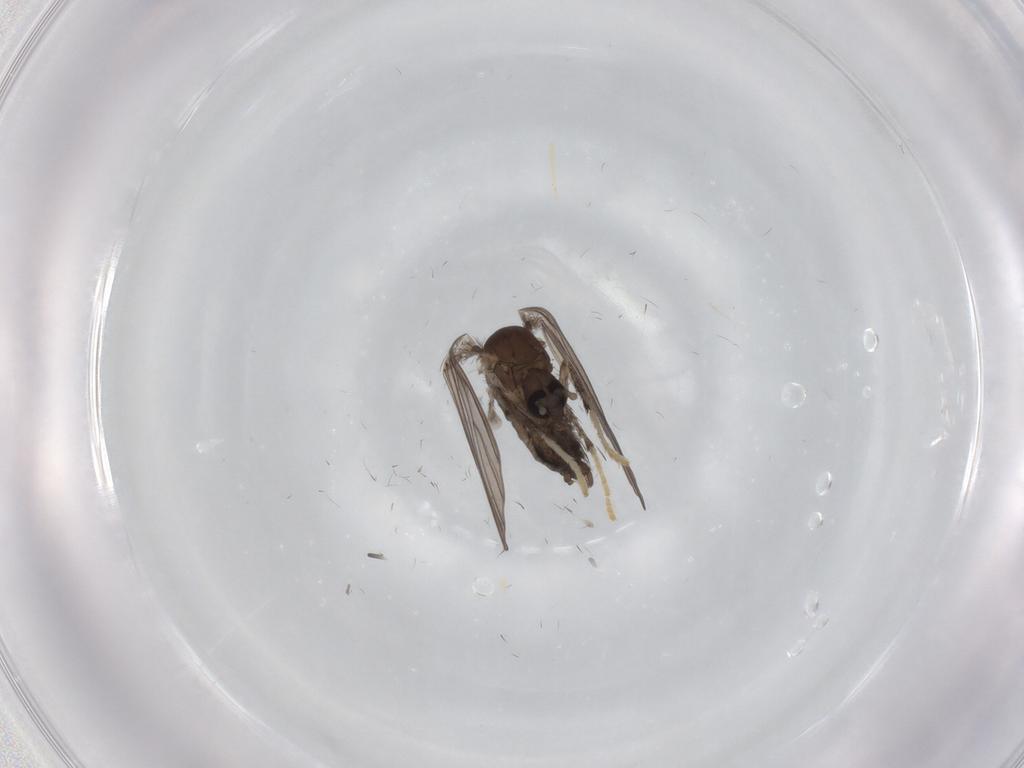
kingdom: Animalia
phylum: Arthropoda
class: Insecta
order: Diptera
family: Psychodidae
